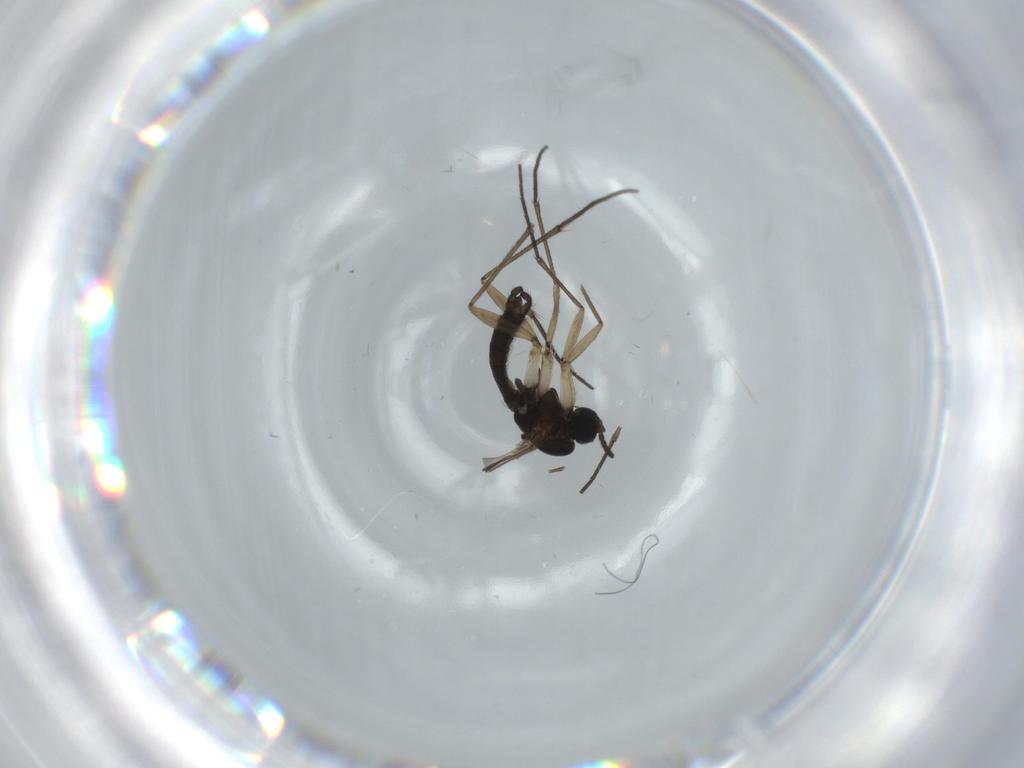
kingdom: Animalia
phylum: Arthropoda
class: Insecta
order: Diptera
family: Sciaridae
